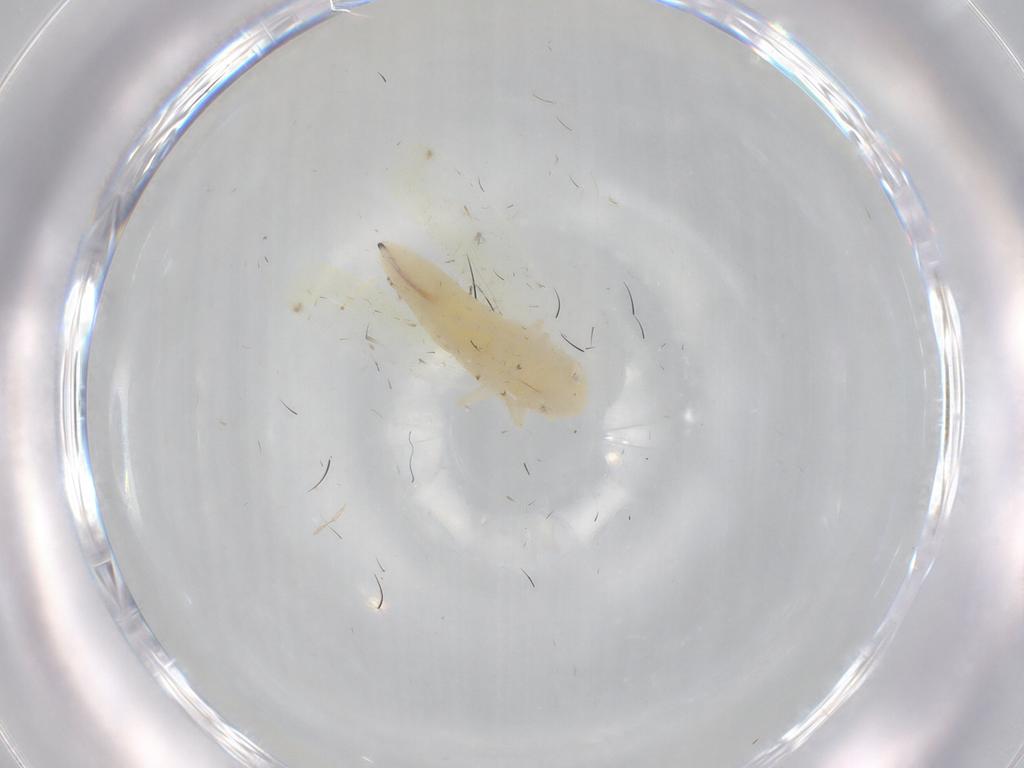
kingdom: Animalia
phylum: Arthropoda
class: Insecta
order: Hemiptera
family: Cicadellidae
